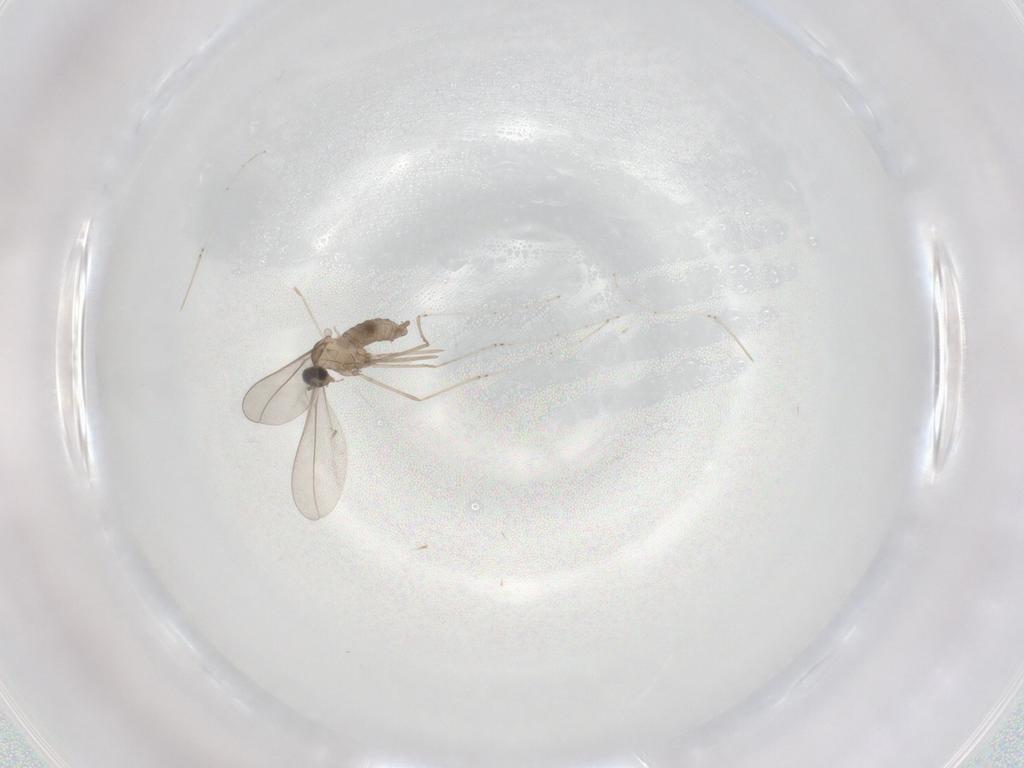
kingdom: Animalia
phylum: Arthropoda
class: Insecta
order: Diptera
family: Cecidomyiidae
